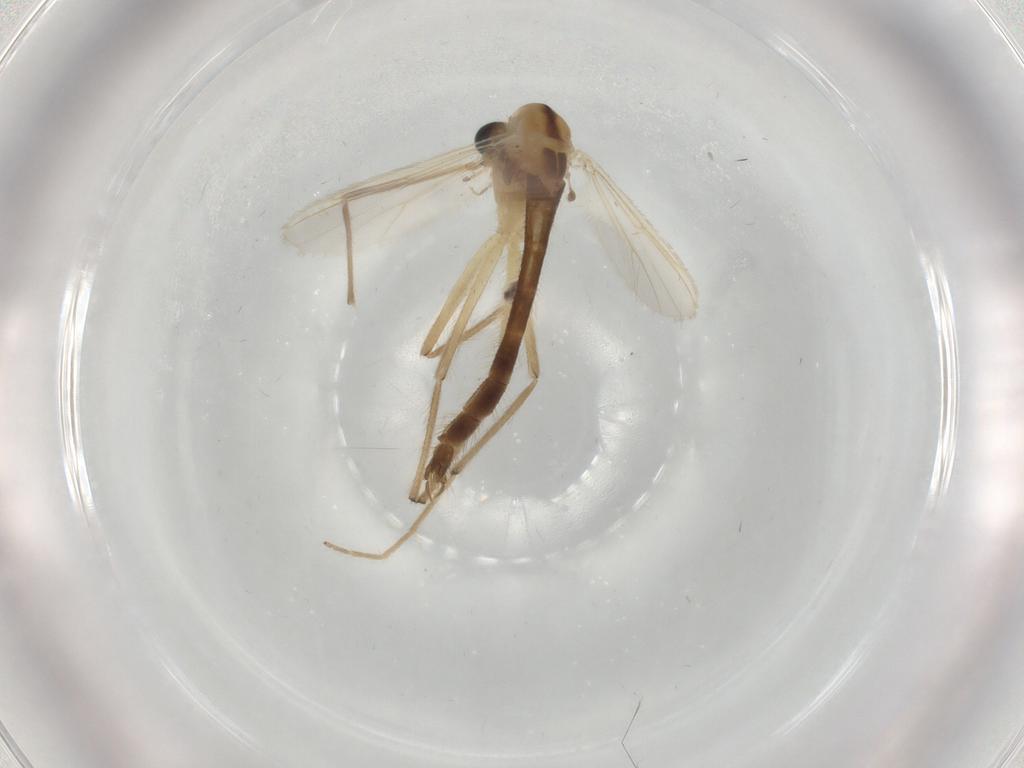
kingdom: Animalia
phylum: Arthropoda
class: Insecta
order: Diptera
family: Chironomidae
